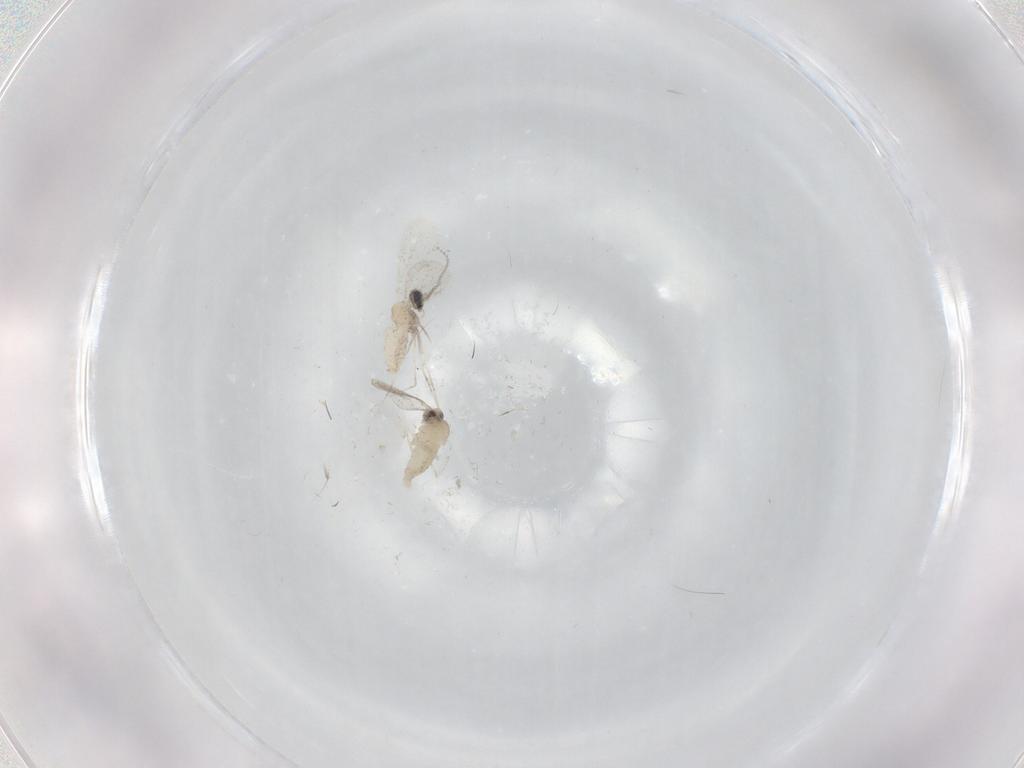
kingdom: Animalia
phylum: Arthropoda
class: Insecta
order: Diptera
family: Cecidomyiidae
